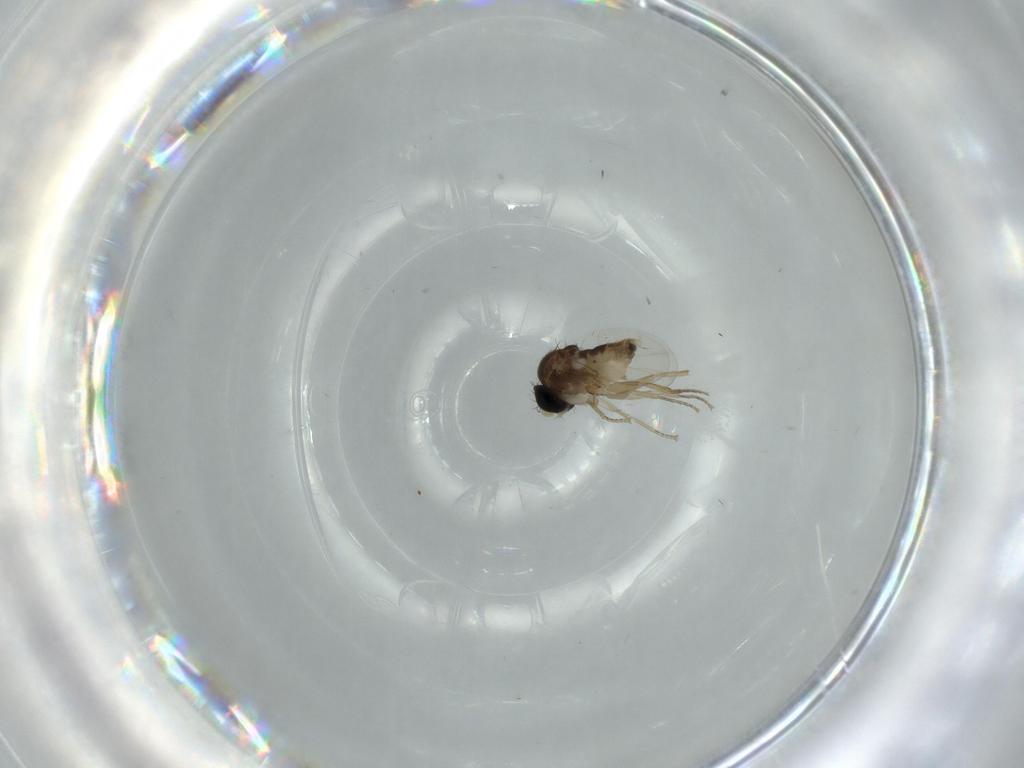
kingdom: Animalia
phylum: Arthropoda
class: Insecta
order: Diptera
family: Phoridae
